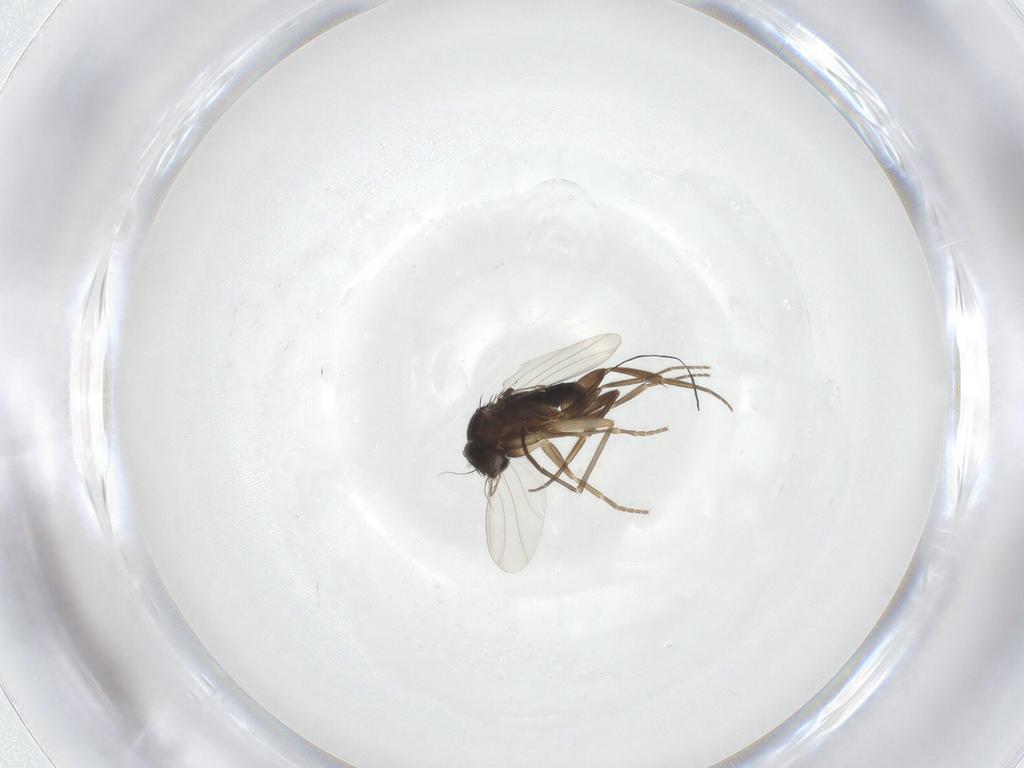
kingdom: Animalia
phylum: Arthropoda
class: Insecta
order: Diptera
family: Phoridae
